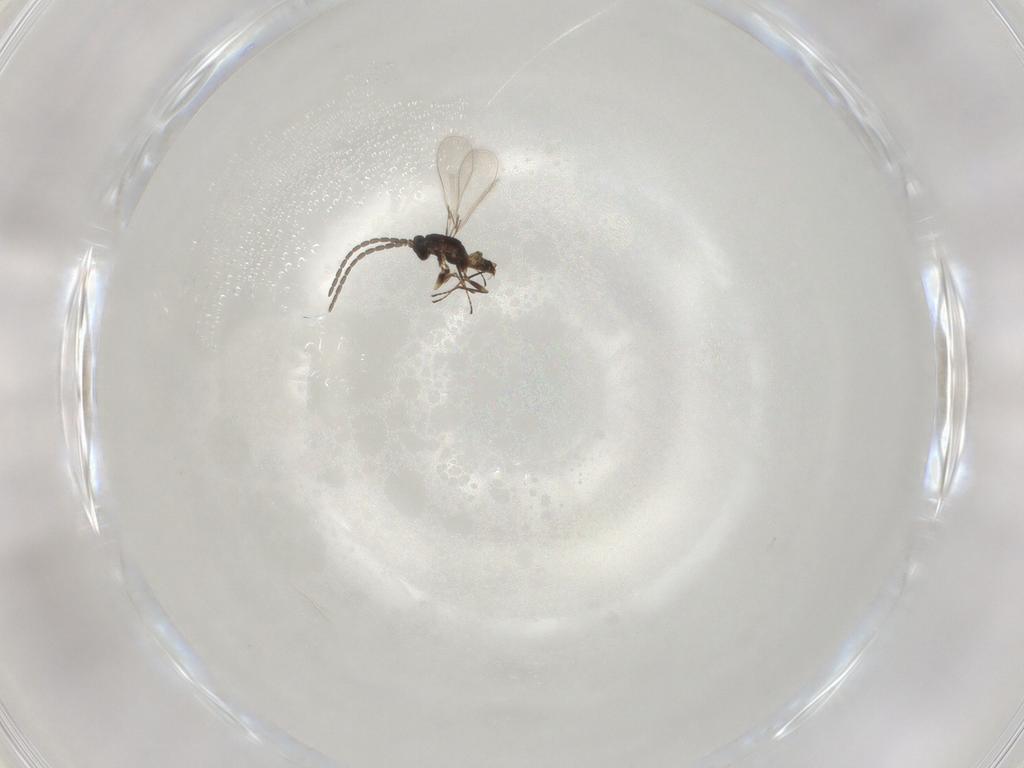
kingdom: Animalia
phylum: Arthropoda
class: Insecta
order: Hymenoptera
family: Mymaridae
